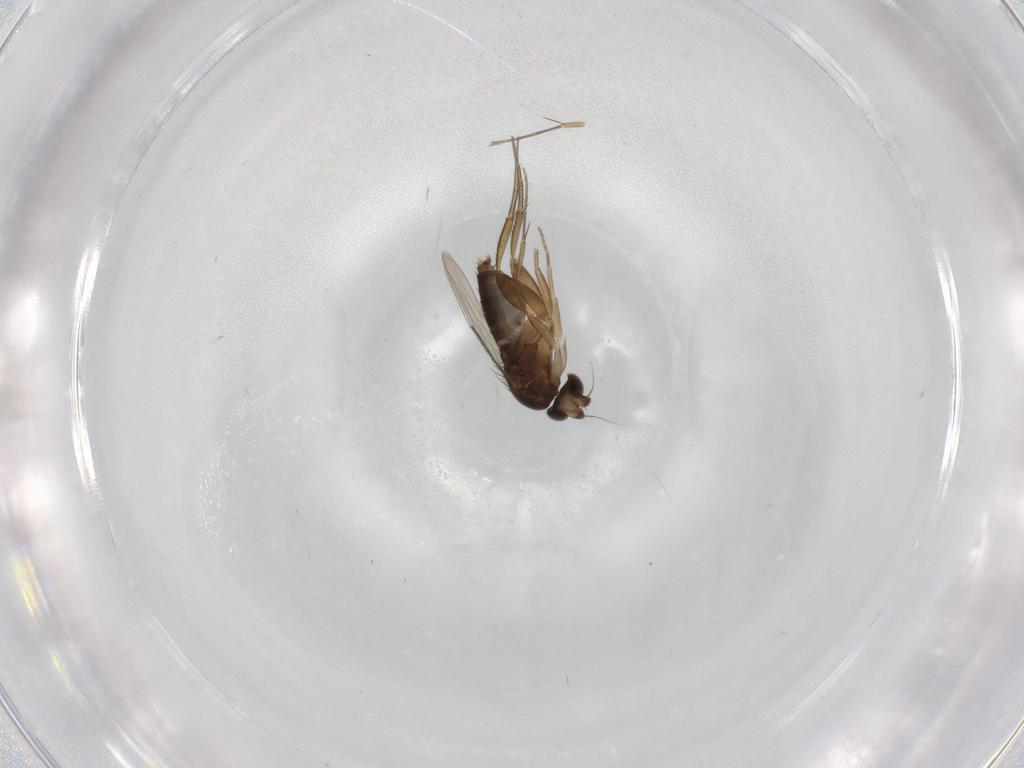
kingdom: Animalia
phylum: Arthropoda
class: Insecta
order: Diptera
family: Phoridae
